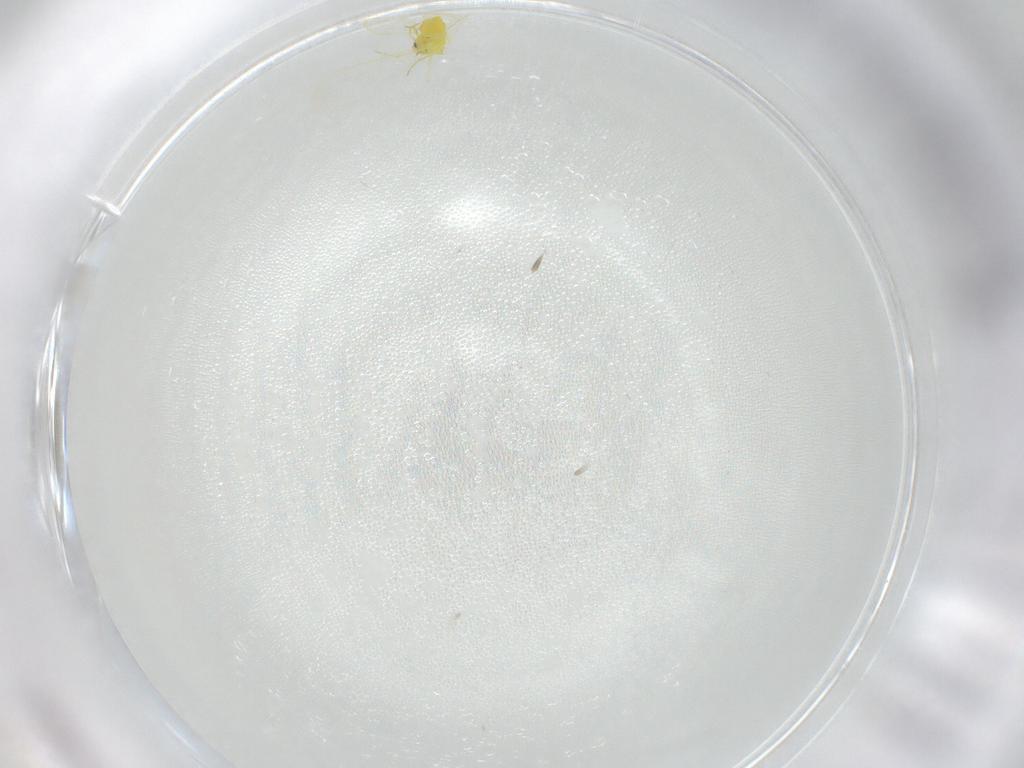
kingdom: Animalia
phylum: Arthropoda
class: Insecta
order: Hemiptera
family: Aleyrodidae
